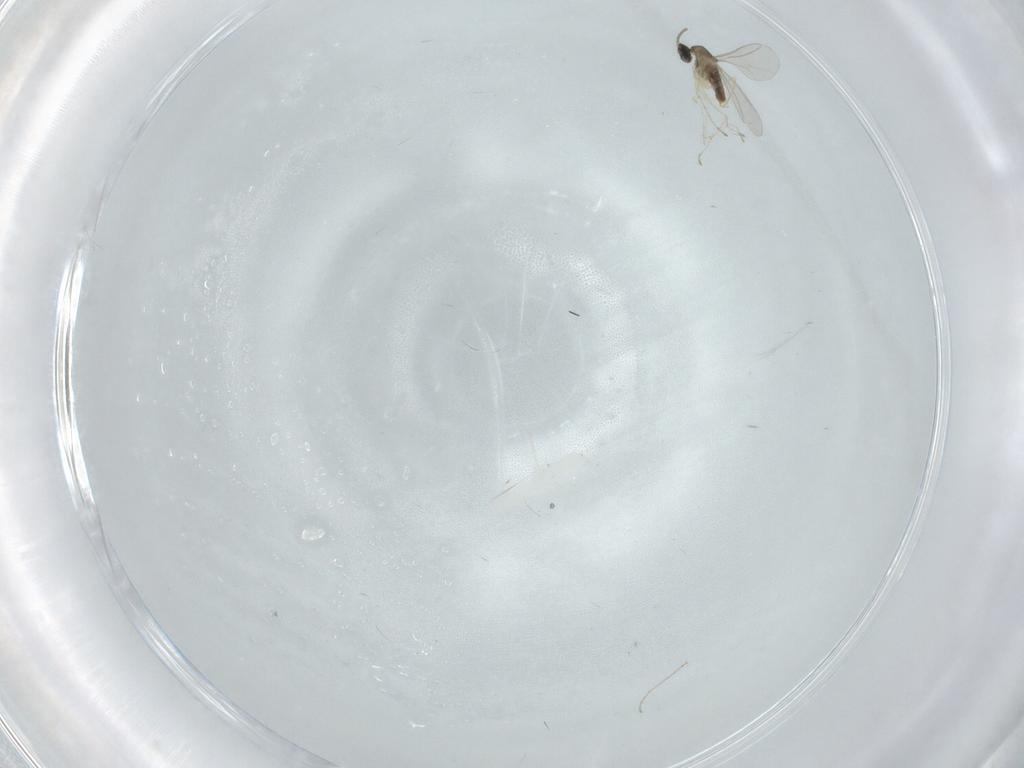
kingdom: Animalia
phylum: Arthropoda
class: Insecta
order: Diptera
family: Cecidomyiidae
